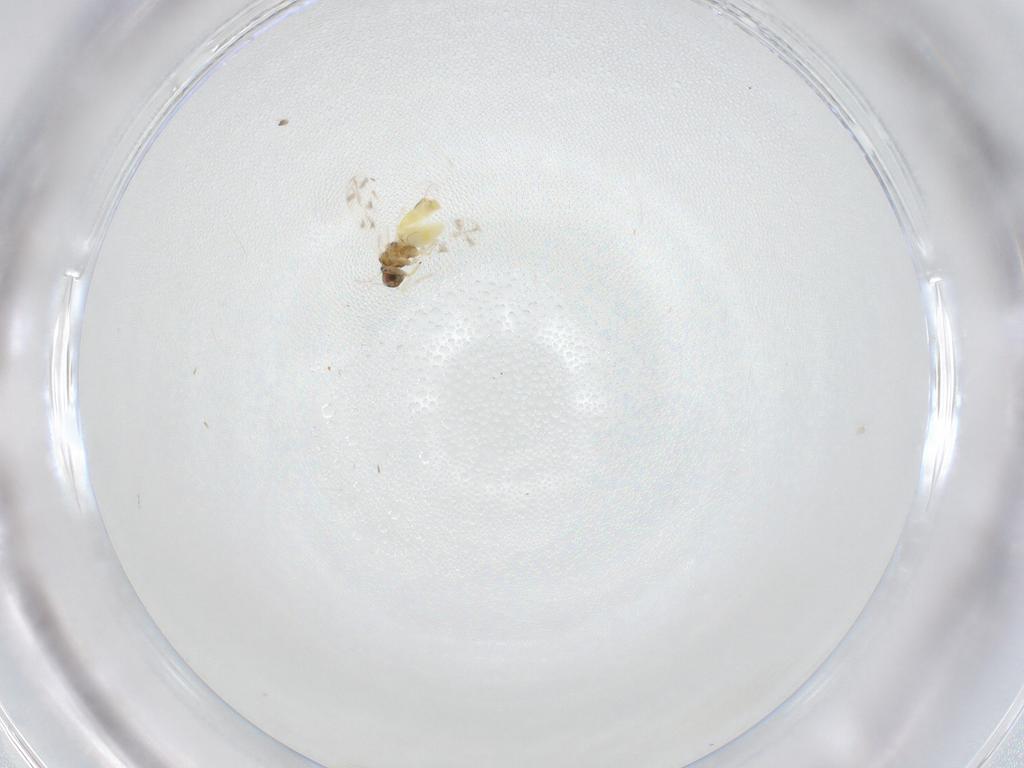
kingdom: Animalia
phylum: Arthropoda
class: Insecta
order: Hemiptera
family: Aleyrodidae
